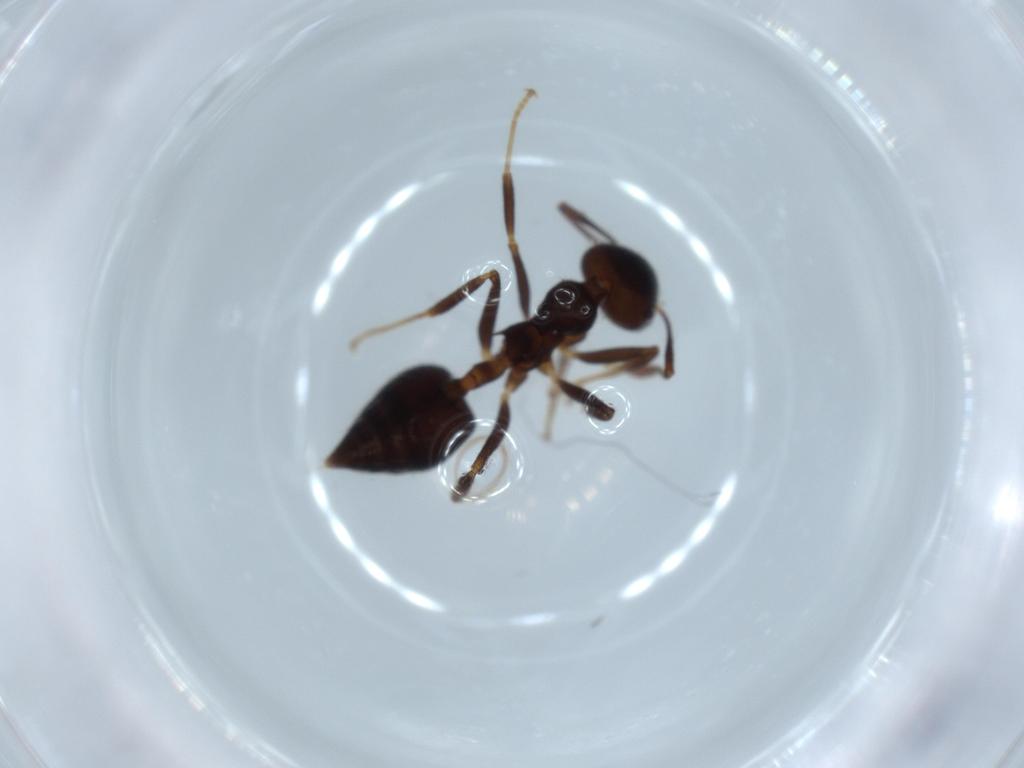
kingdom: Animalia
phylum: Arthropoda
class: Insecta
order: Hymenoptera
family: Formicidae
